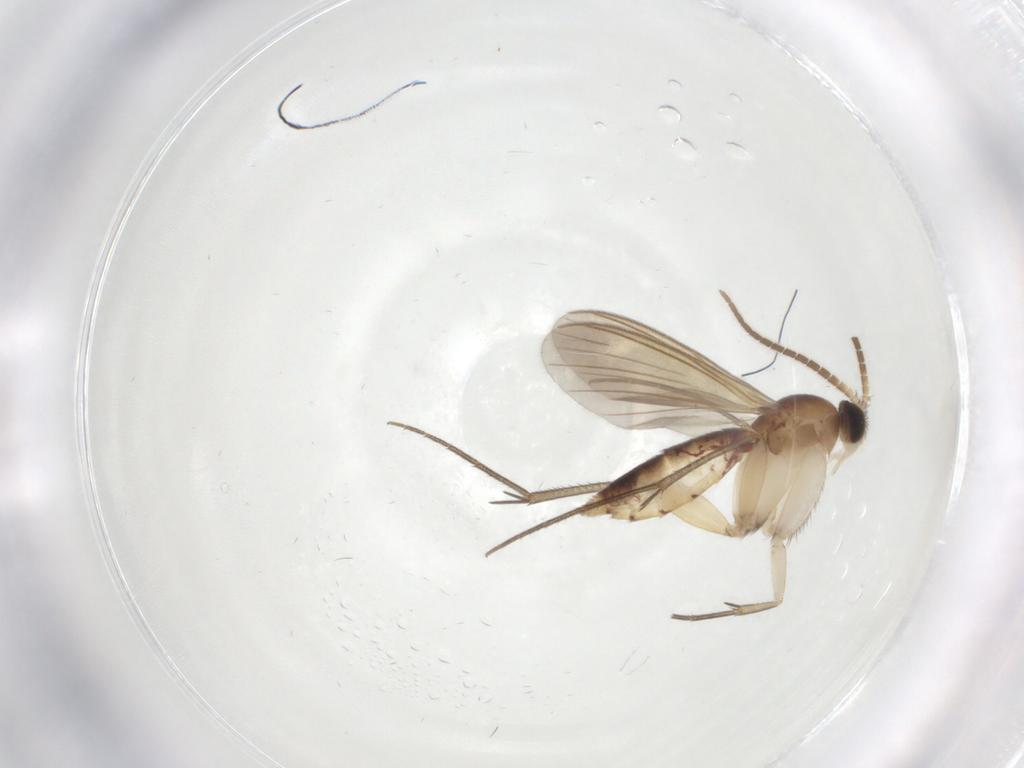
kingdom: Animalia
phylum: Arthropoda
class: Insecta
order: Diptera
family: Mycetophilidae
